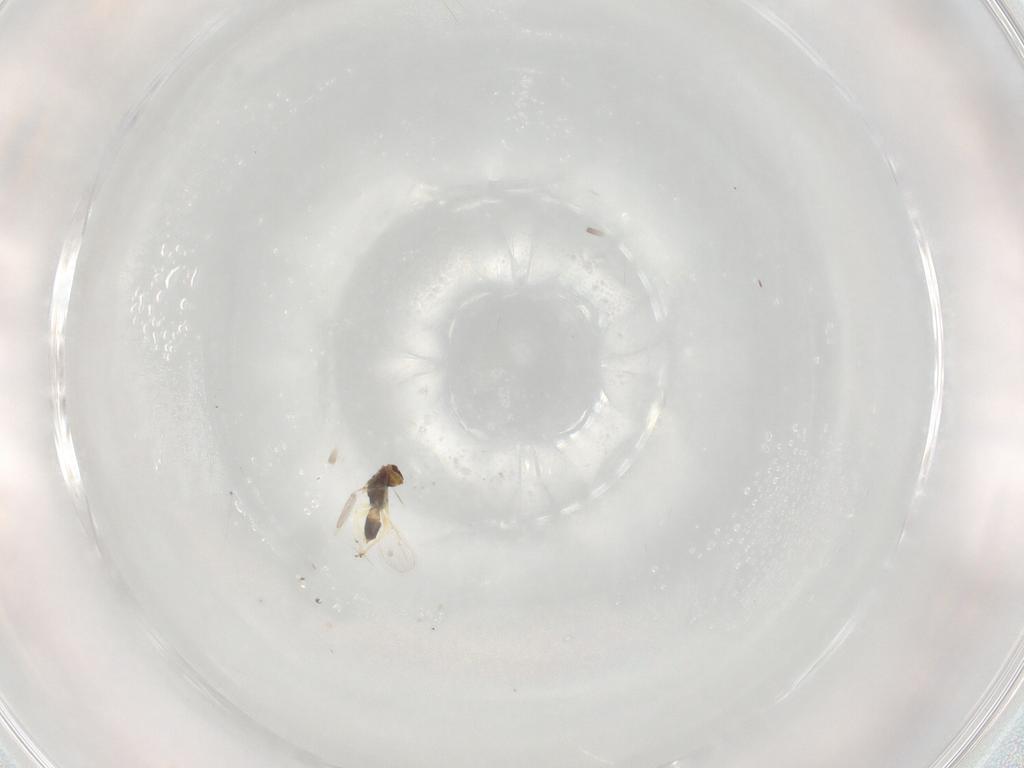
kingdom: Animalia
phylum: Arthropoda
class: Insecta
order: Hymenoptera
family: Eulophidae
